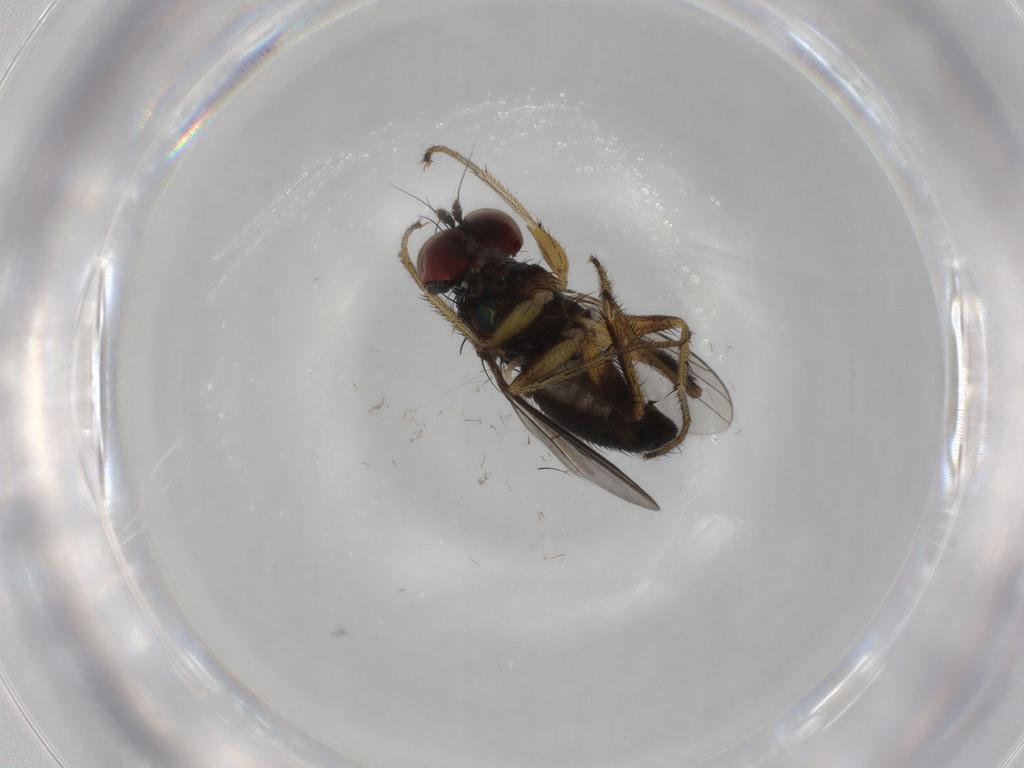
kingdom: Animalia
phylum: Arthropoda
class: Insecta
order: Diptera
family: Dolichopodidae
